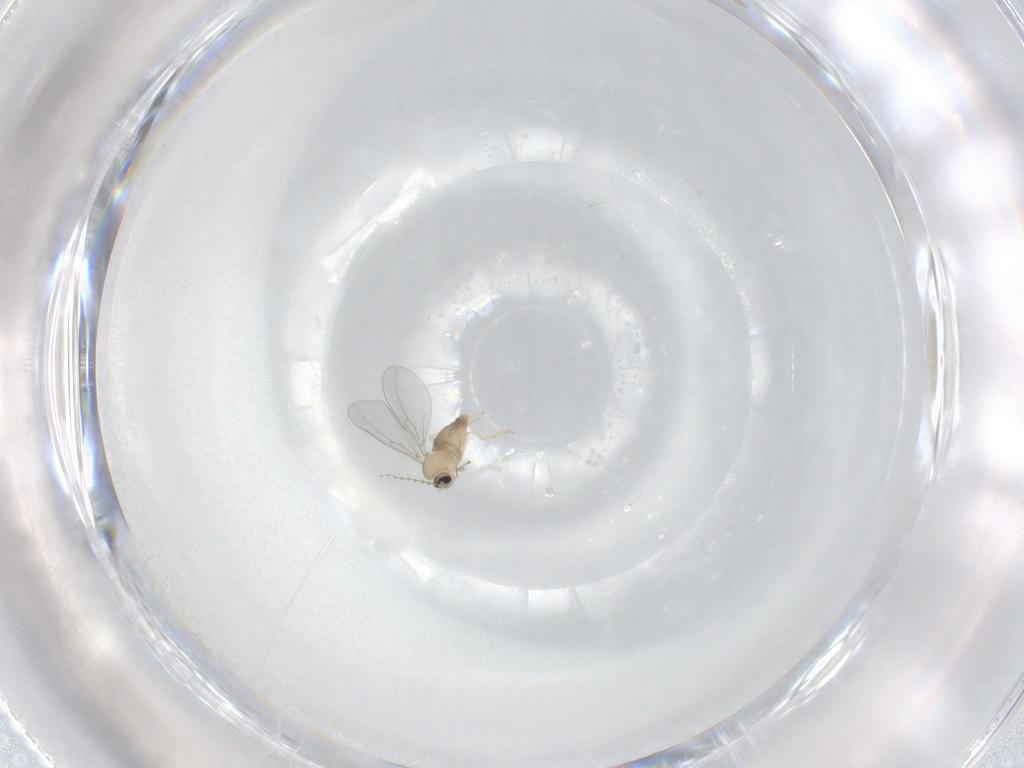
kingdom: Animalia
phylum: Arthropoda
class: Insecta
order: Diptera
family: Cecidomyiidae
